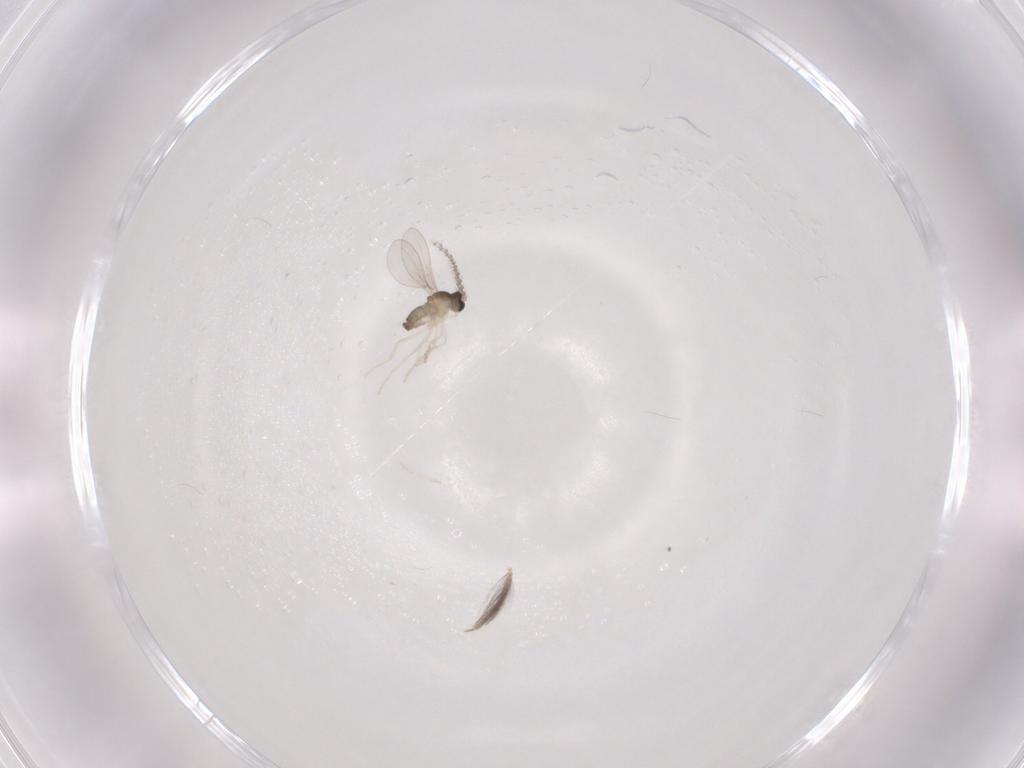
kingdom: Animalia
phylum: Arthropoda
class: Insecta
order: Diptera
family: Cecidomyiidae
